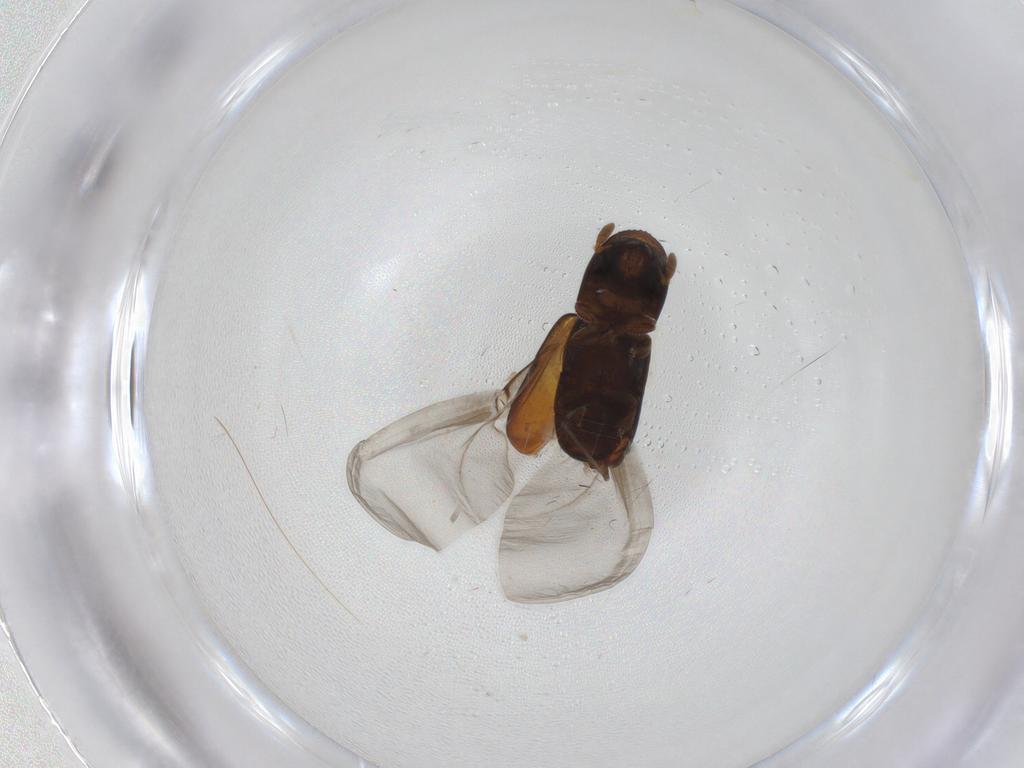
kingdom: Animalia
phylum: Arthropoda
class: Insecta
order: Coleoptera
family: Curculionidae
